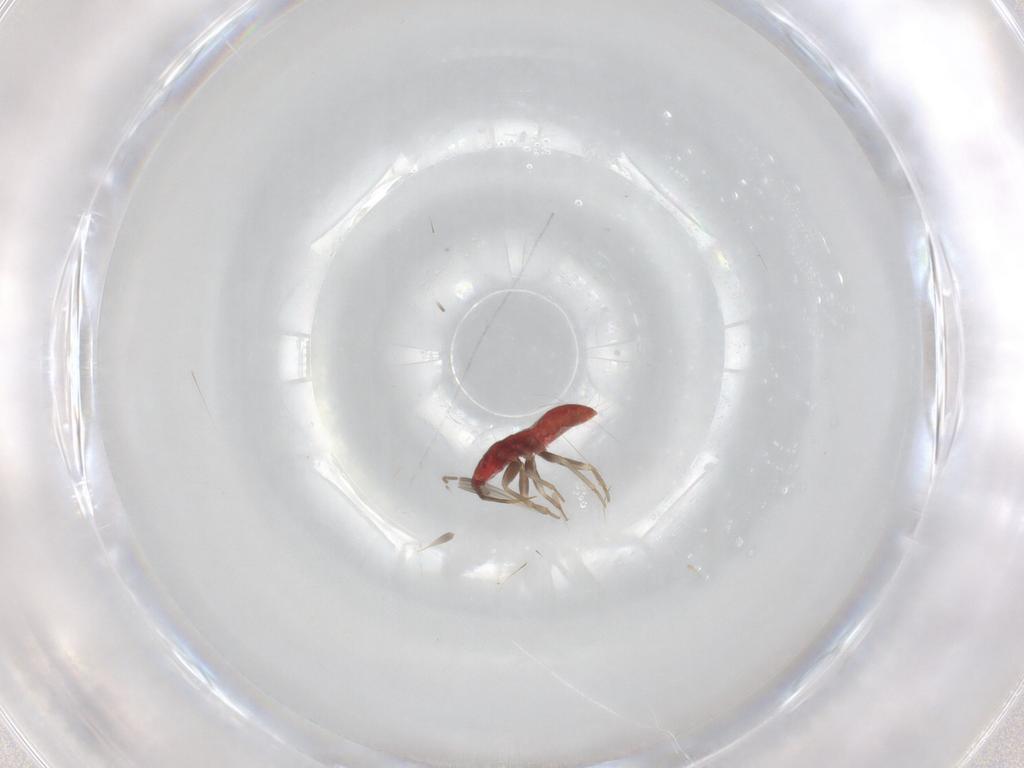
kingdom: Animalia
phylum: Arthropoda
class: Insecta
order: Hemiptera
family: Anthocoridae
